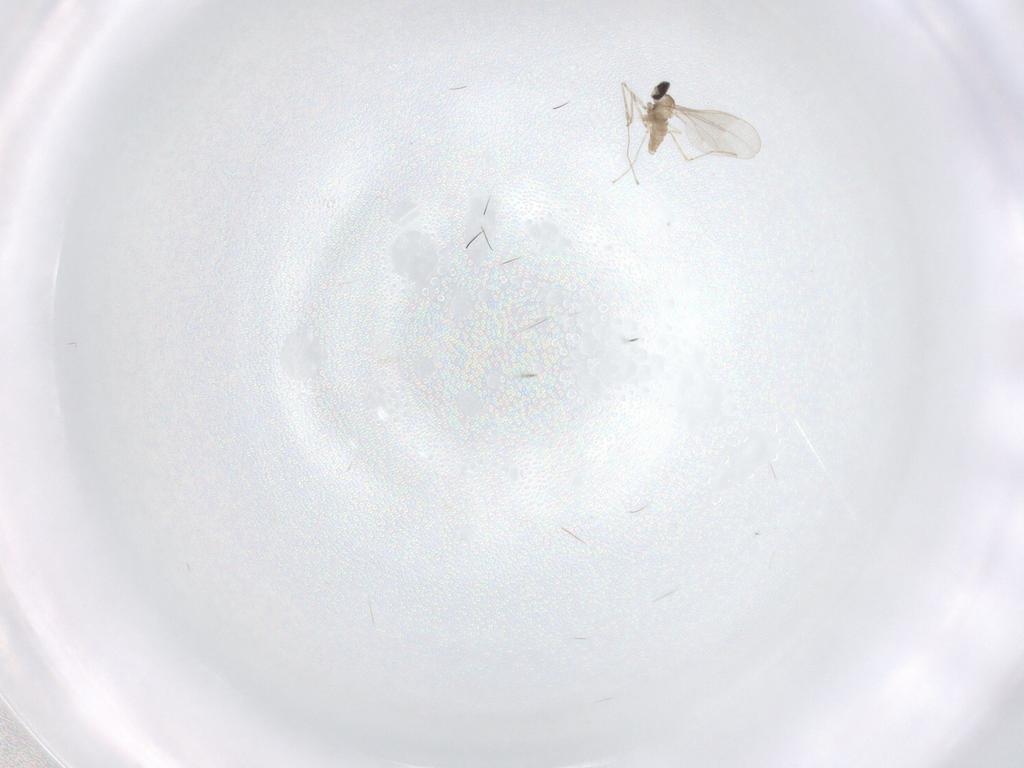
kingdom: Animalia
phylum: Arthropoda
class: Insecta
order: Diptera
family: Cecidomyiidae
